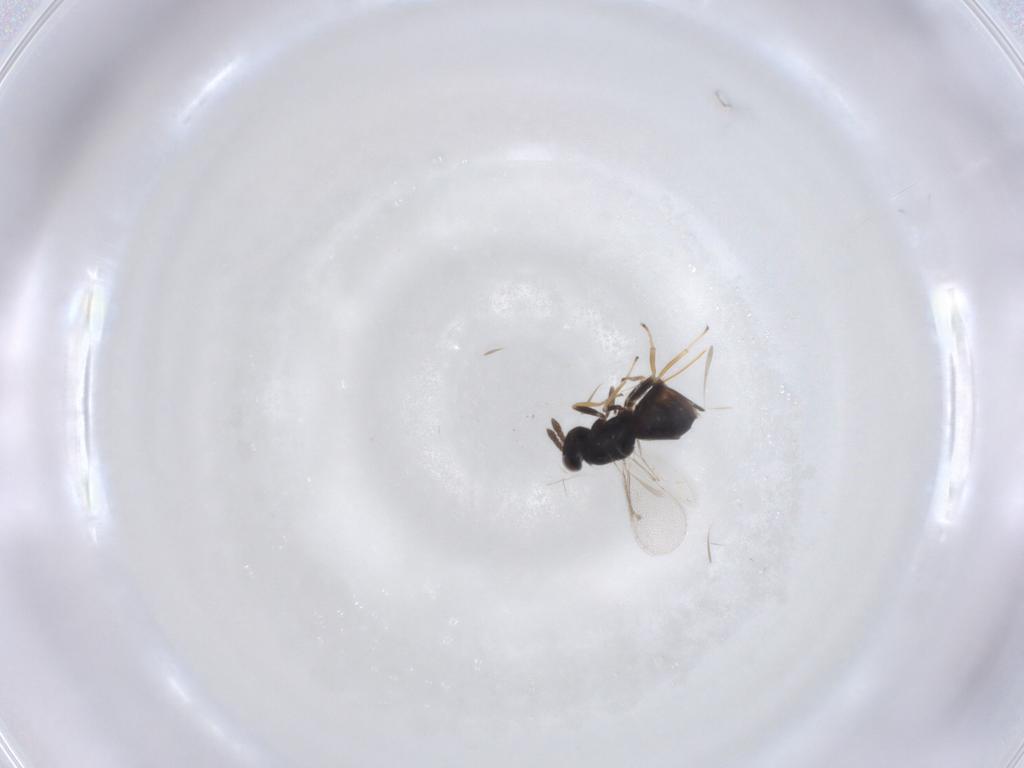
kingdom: Animalia
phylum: Arthropoda
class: Insecta
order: Hymenoptera
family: Eulophidae
